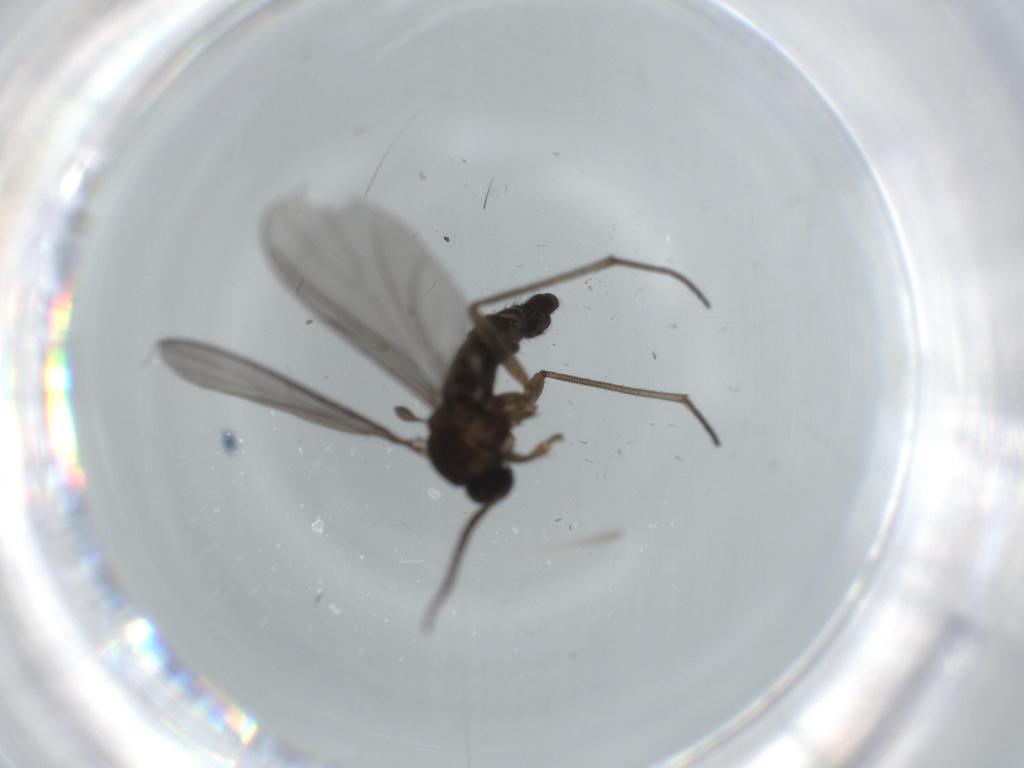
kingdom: Animalia
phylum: Arthropoda
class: Insecta
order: Diptera
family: Sciaridae
